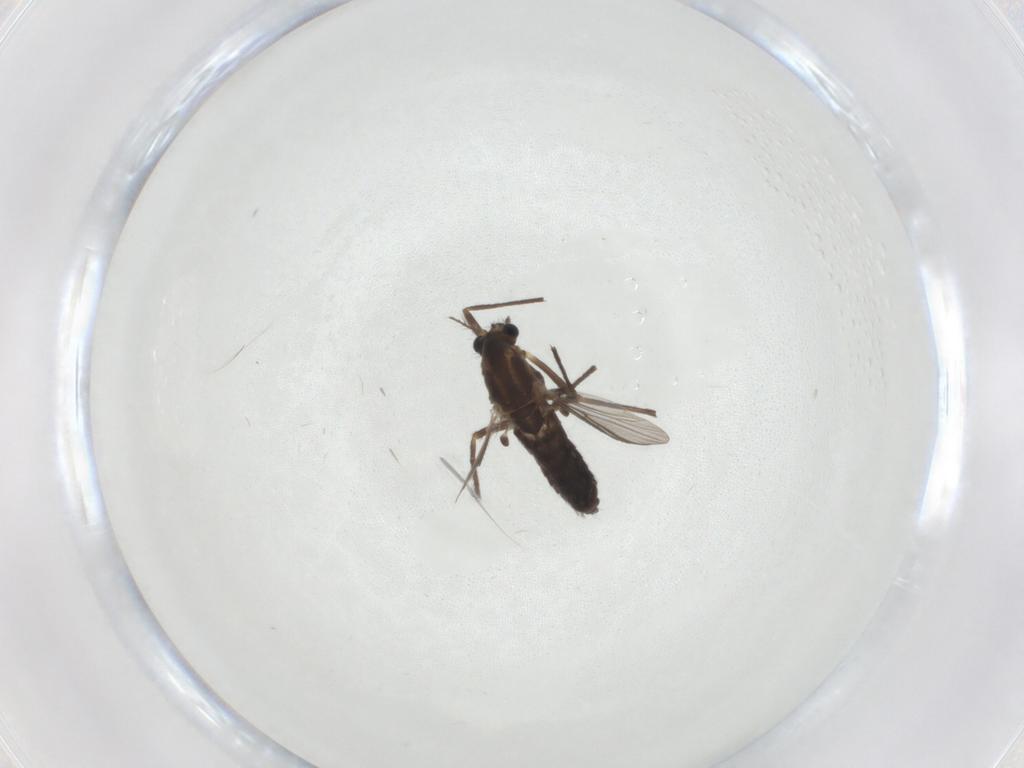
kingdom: Animalia
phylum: Arthropoda
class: Insecta
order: Diptera
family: Chironomidae
